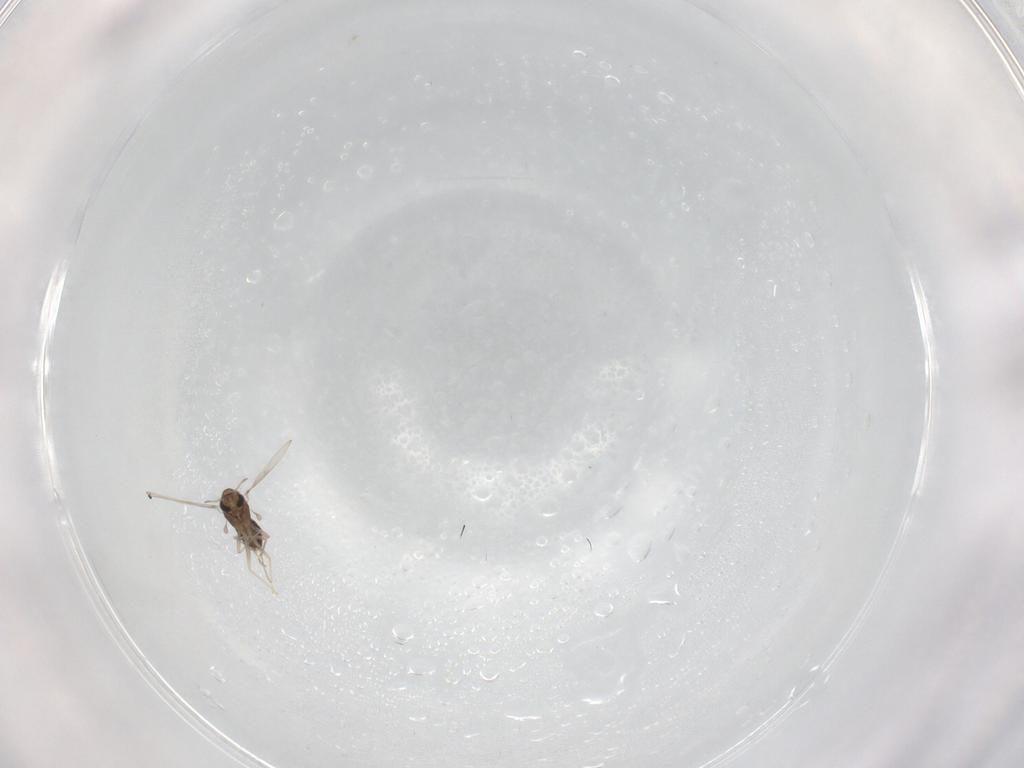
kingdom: Animalia
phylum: Arthropoda
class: Insecta
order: Diptera
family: Chironomidae
